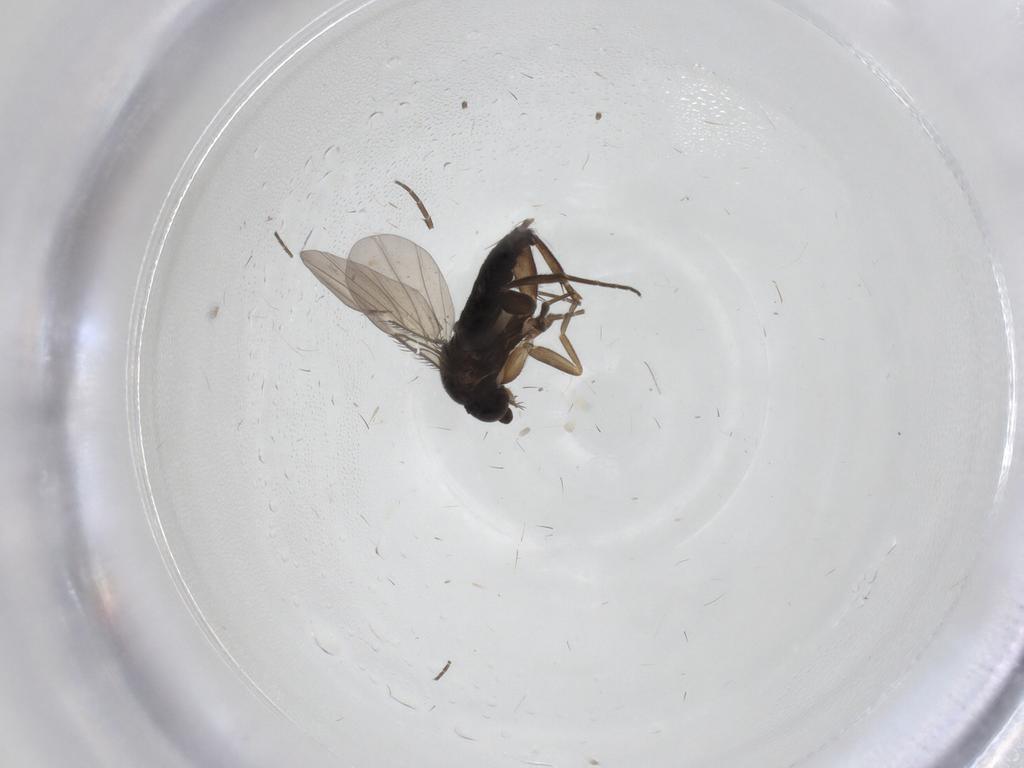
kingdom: Animalia
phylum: Arthropoda
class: Insecta
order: Diptera
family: Phoridae
